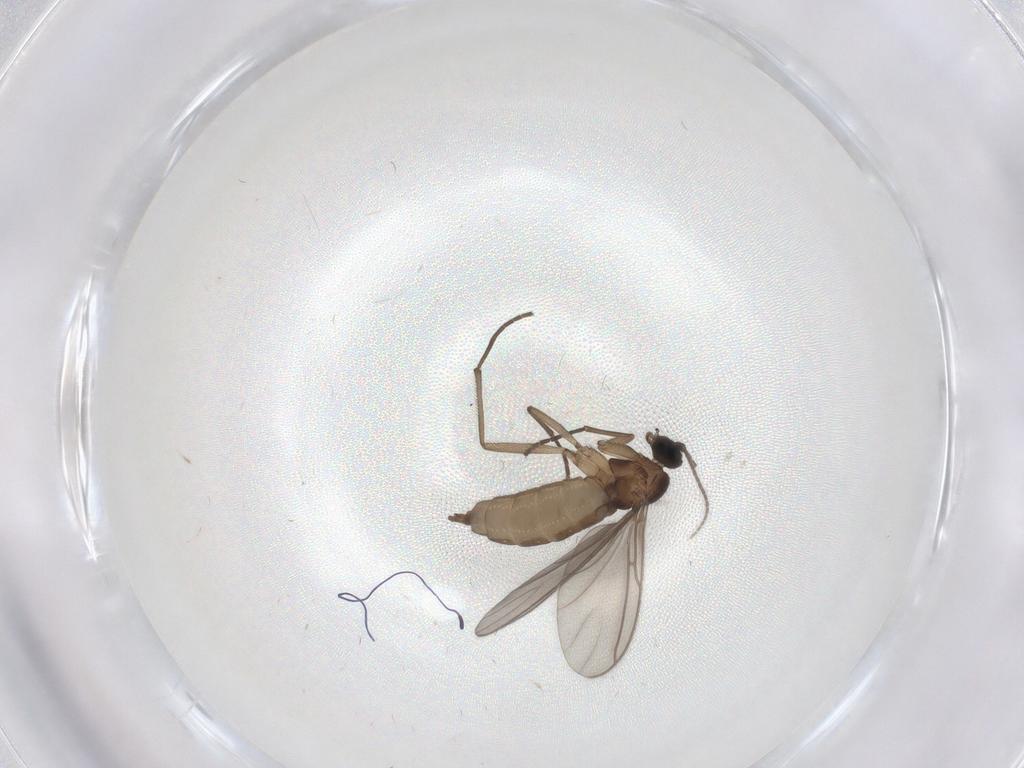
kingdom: Animalia
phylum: Arthropoda
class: Insecta
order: Diptera
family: Sciaridae
